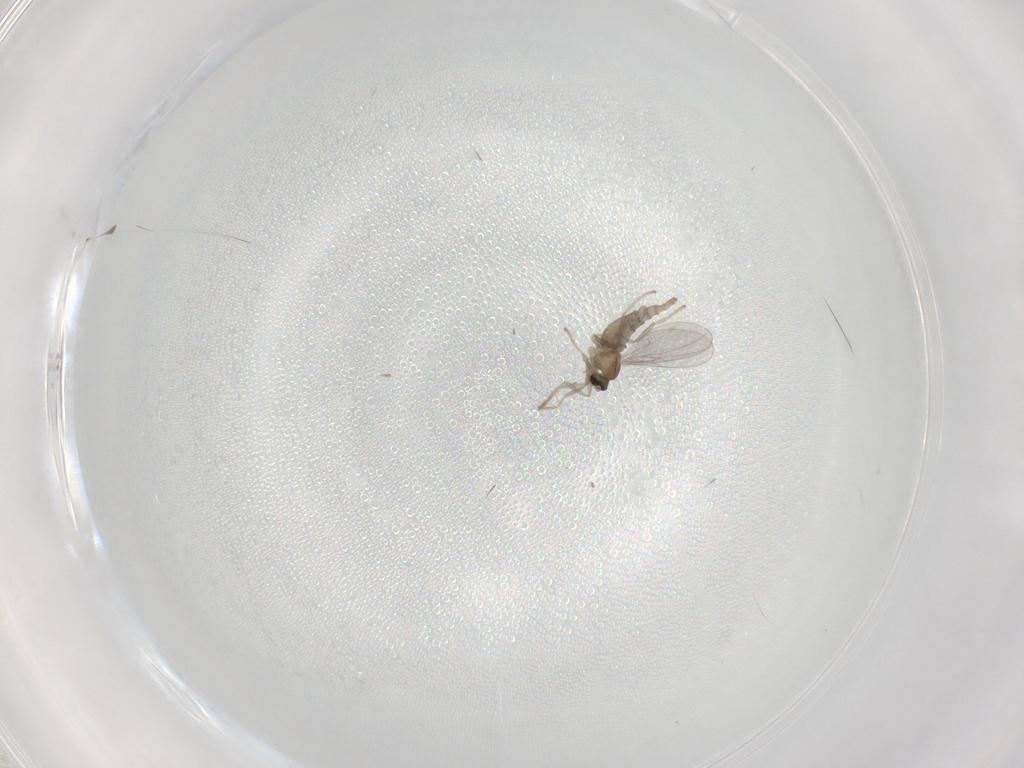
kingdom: Animalia
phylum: Arthropoda
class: Insecta
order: Diptera
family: Cecidomyiidae
